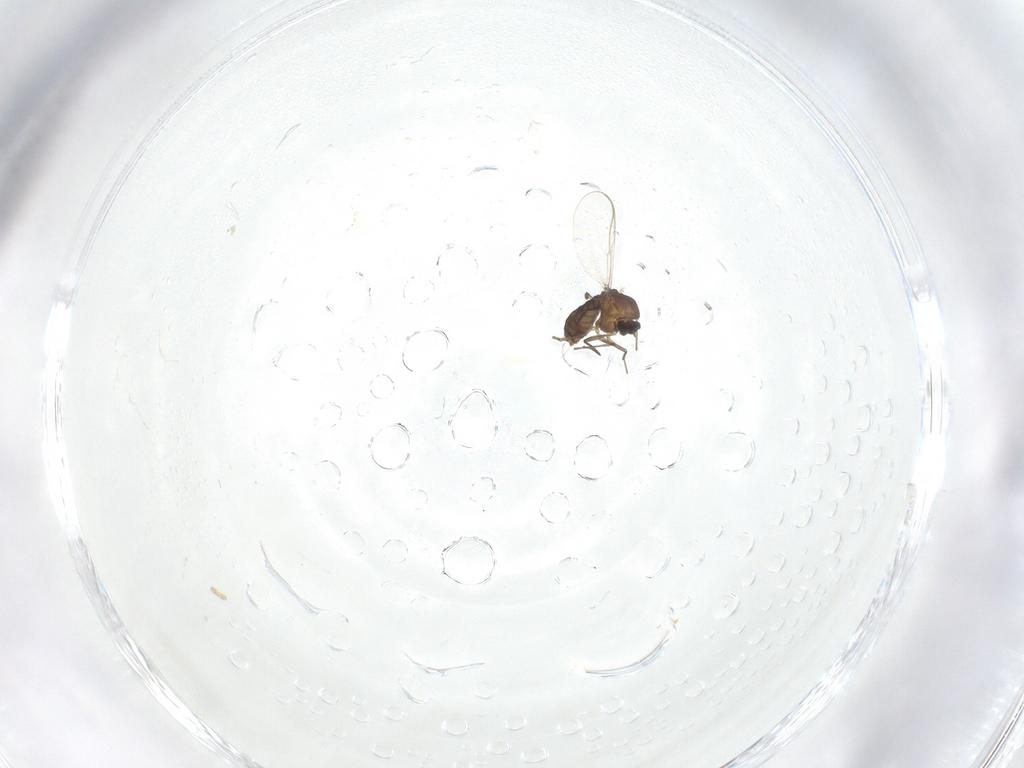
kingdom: Animalia
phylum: Arthropoda
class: Insecta
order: Diptera
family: Chironomidae
